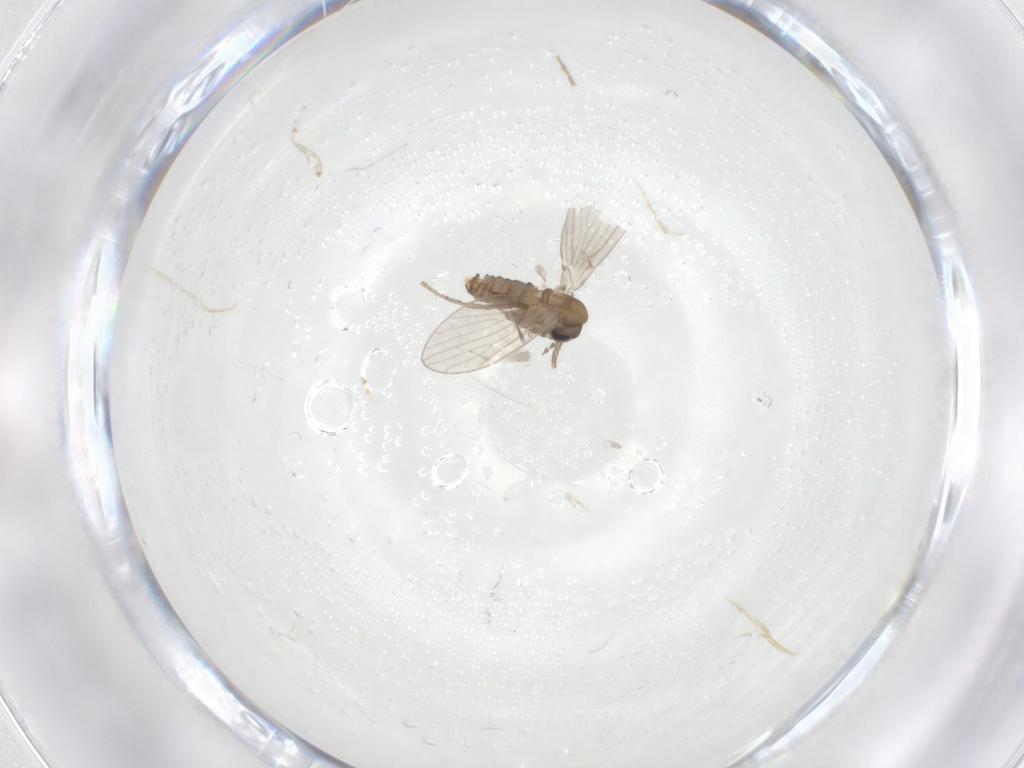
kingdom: Animalia
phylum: Arthropoda
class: Insecta
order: Diptera
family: Psychodidae
